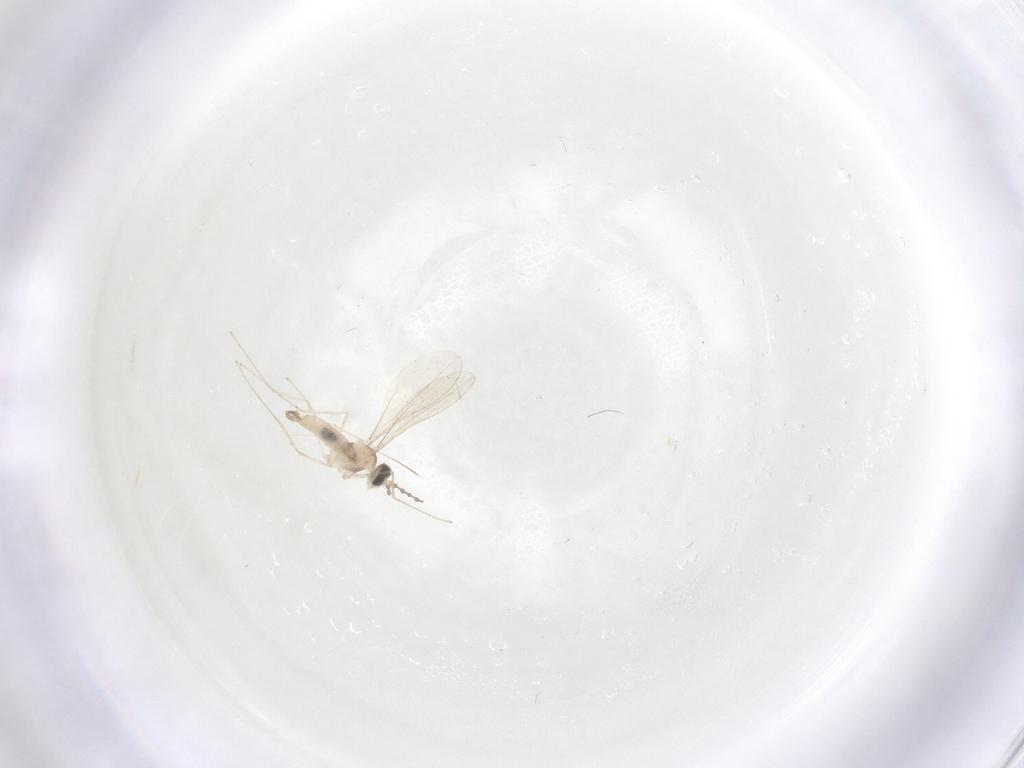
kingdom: Animalia
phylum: Arthropoda
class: Insecta
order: Diptera
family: Cecidomyiidae
